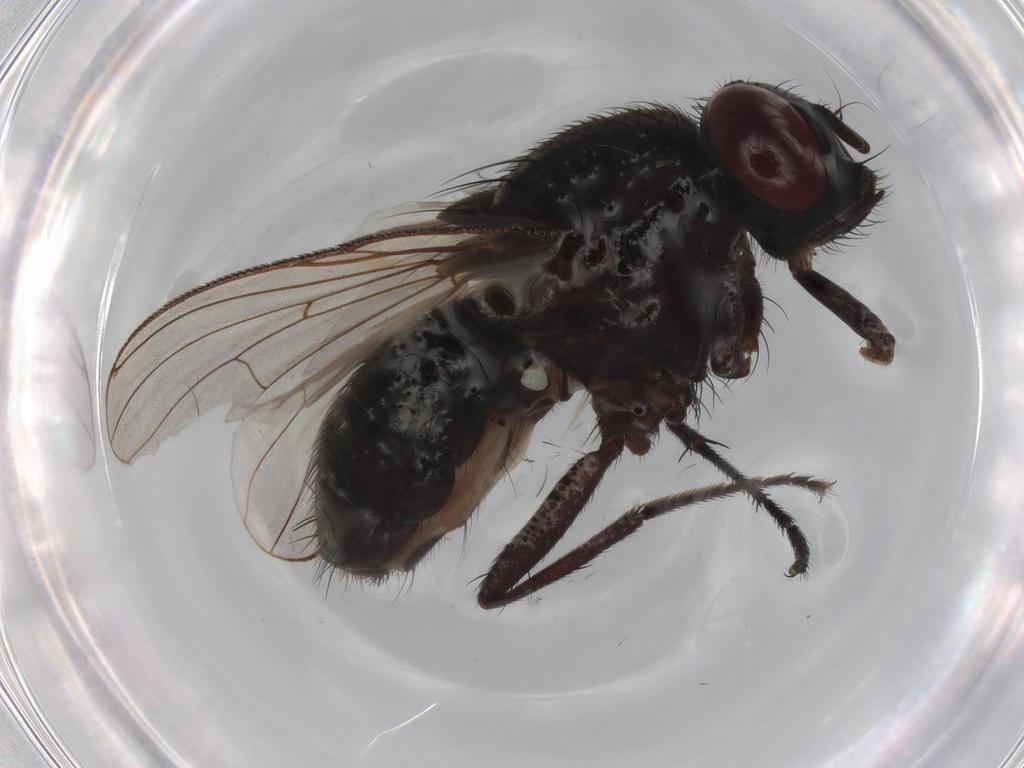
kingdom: Animalia
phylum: Arthropoda
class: Insecta
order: Diptera
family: Muscidae
